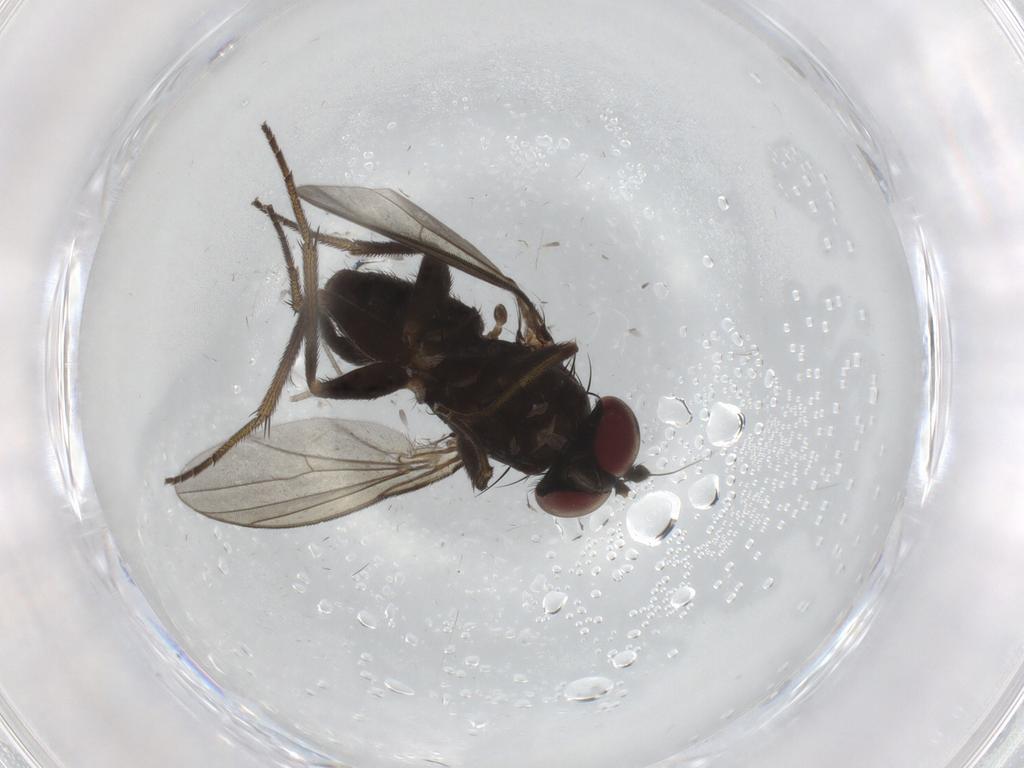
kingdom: Animalia
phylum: Arthropoda
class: Insecta
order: Diptera
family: Dolichopodidae
